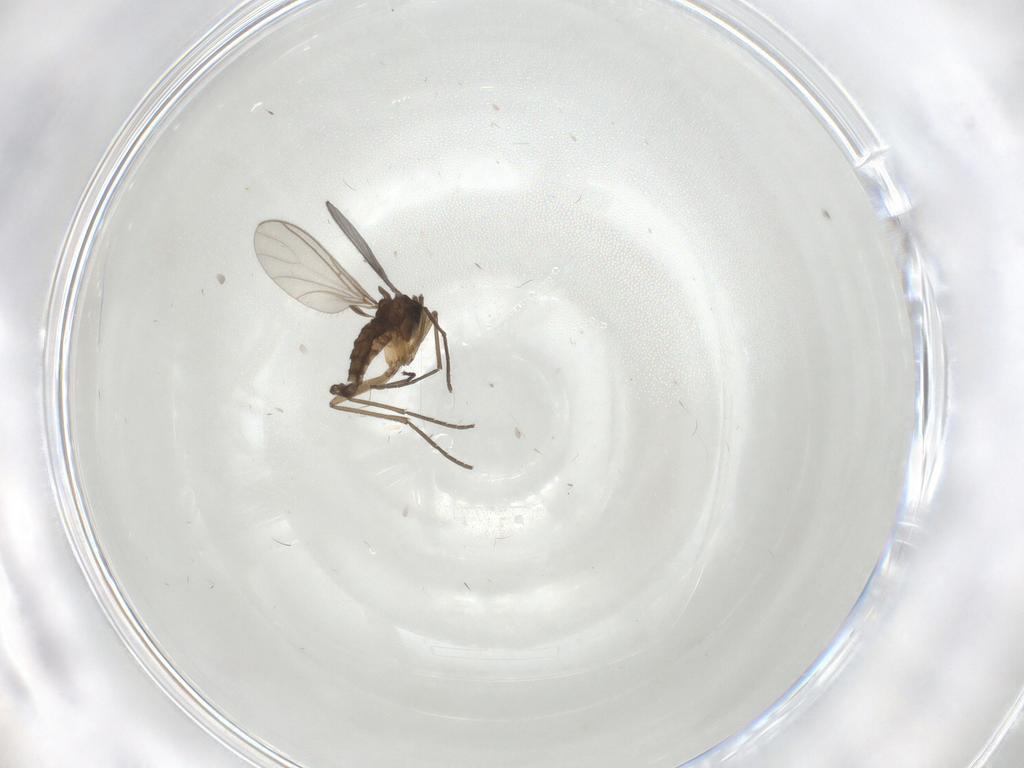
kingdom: Animalia
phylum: Arthropoda
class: Insecta
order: Diptera
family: Sciaridae
